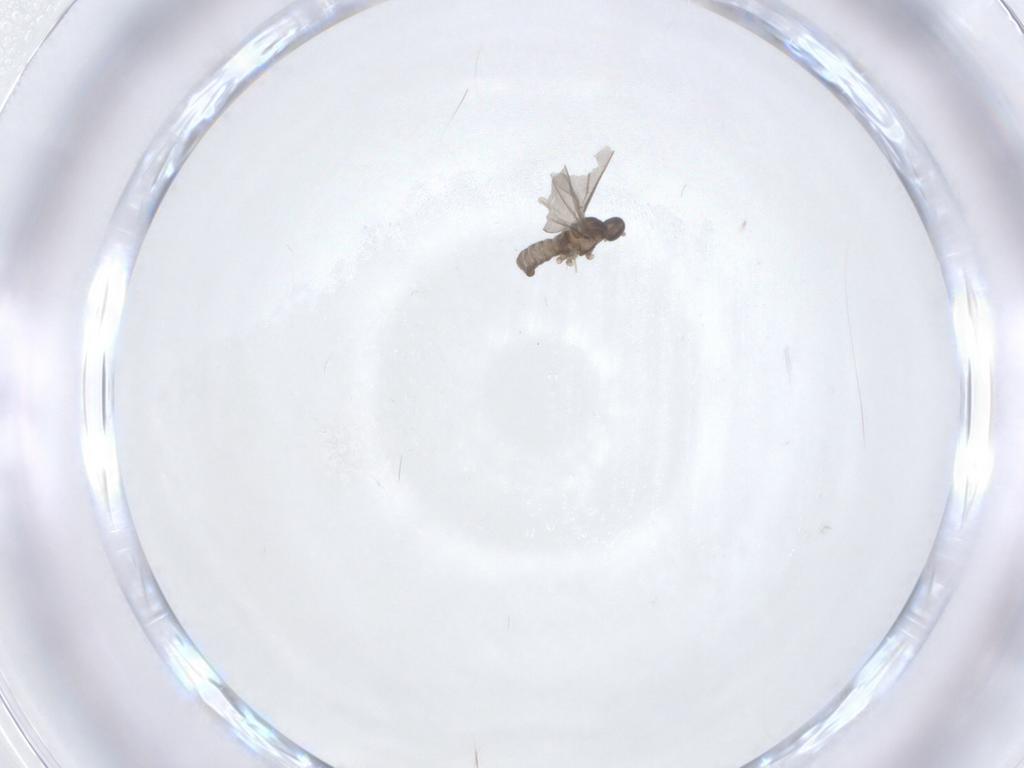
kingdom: Animalia
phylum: Arthropoda
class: Insecta
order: Diptera
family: Cecidomyiidae
